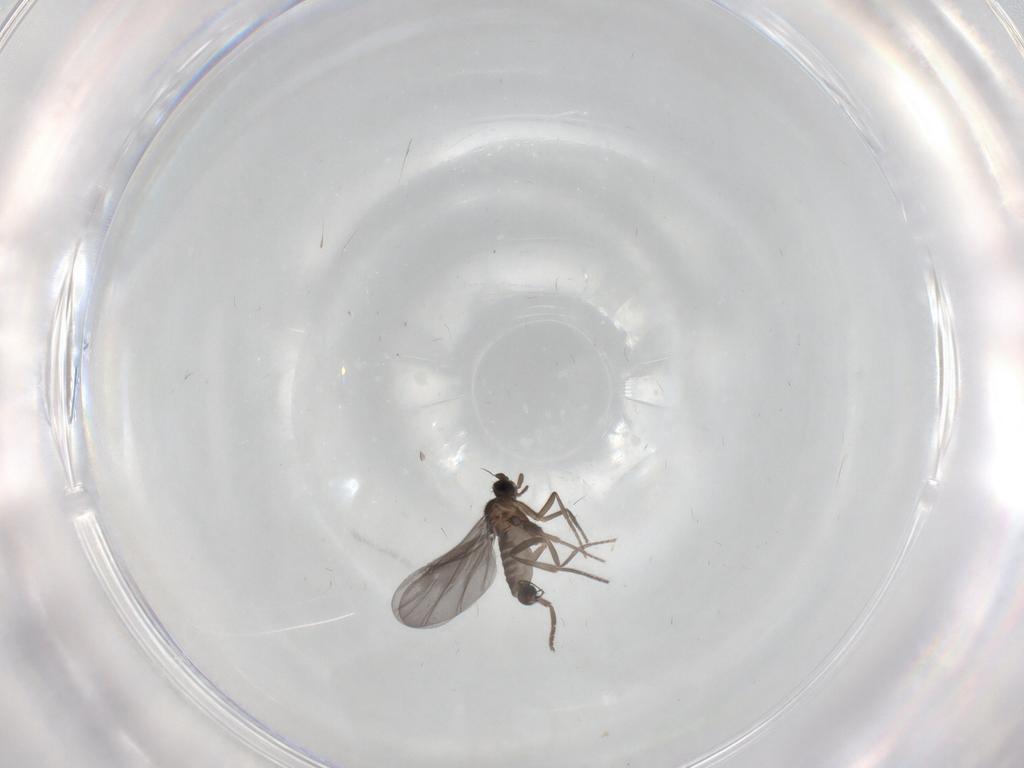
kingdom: Animalia
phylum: Arthropoda
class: Insecta
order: Diptera
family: Phoridae
